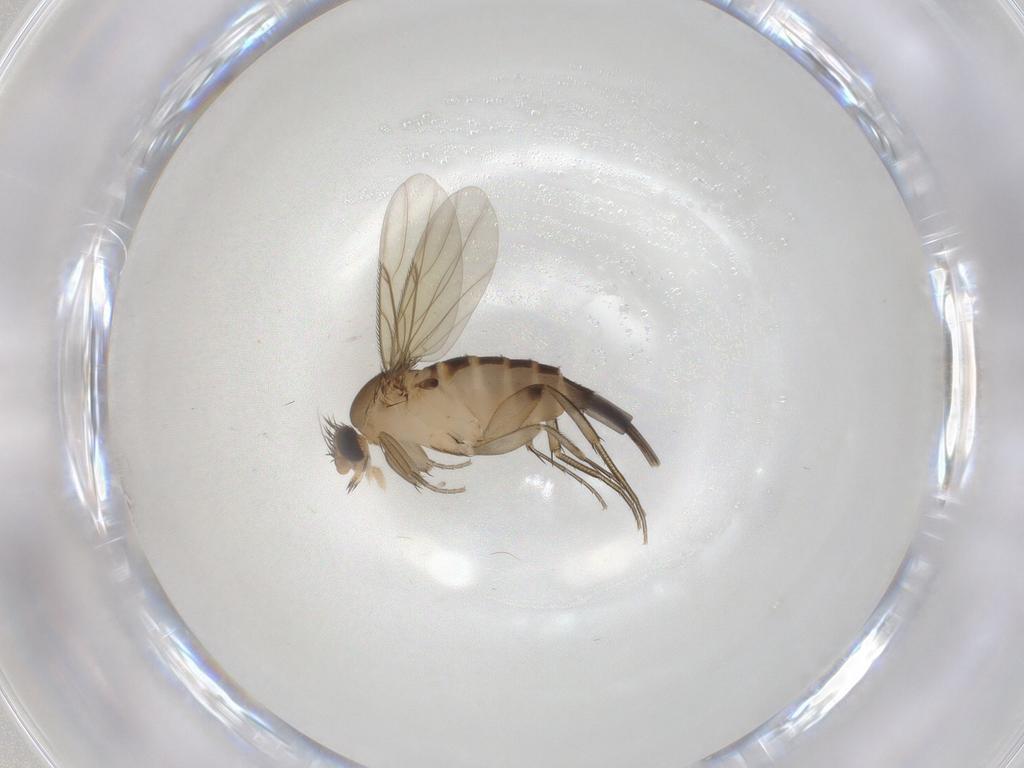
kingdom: Animalia
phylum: Arthropoda
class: Insecta
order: Diptera
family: Phoridae
